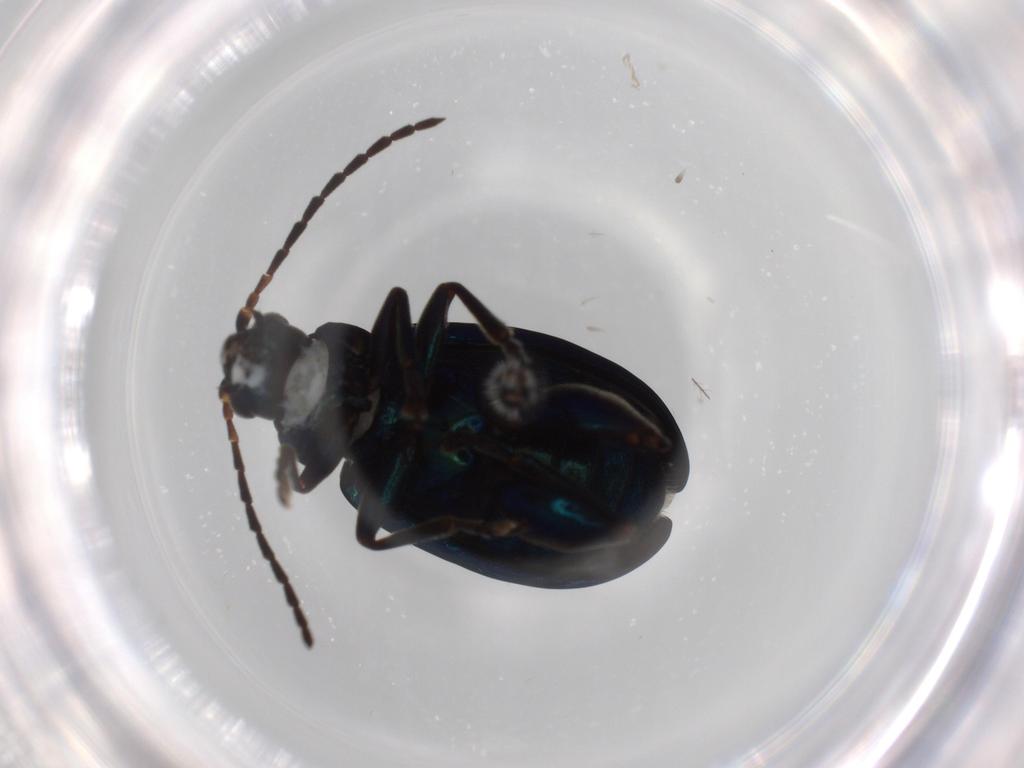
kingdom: Animalia
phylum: Arthropoda
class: Insecta
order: Coleoptera
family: Chrysomelidae
